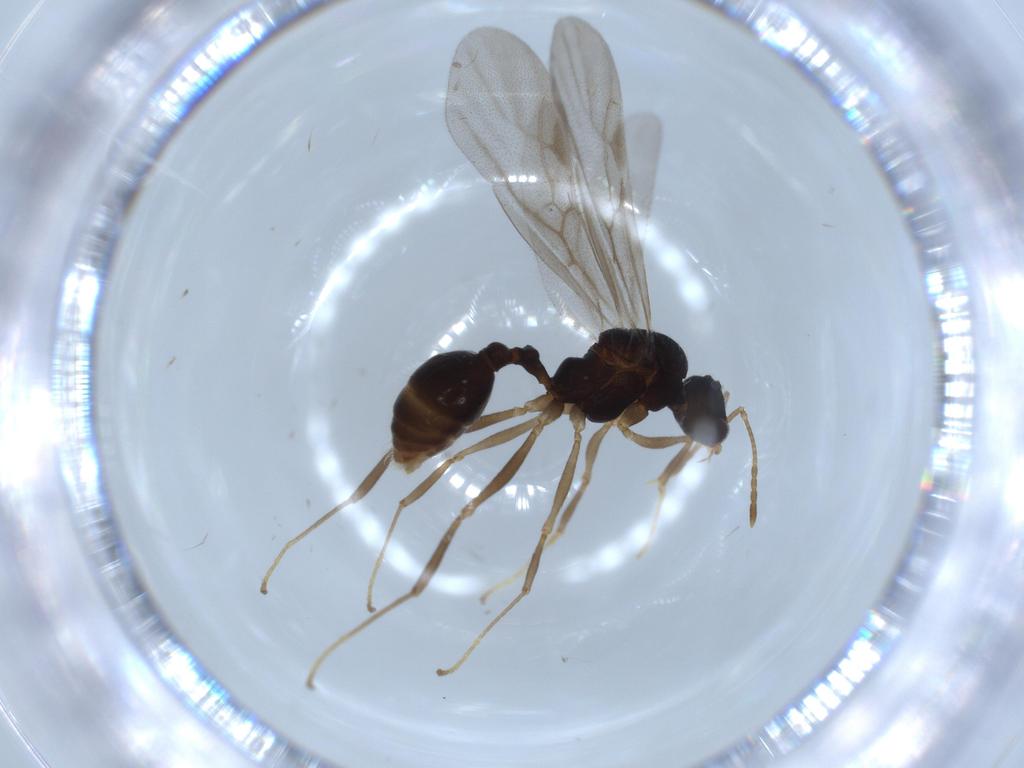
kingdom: Animalia
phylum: Arthropoda
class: Insecta
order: Hymenoptera
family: Formicidae
